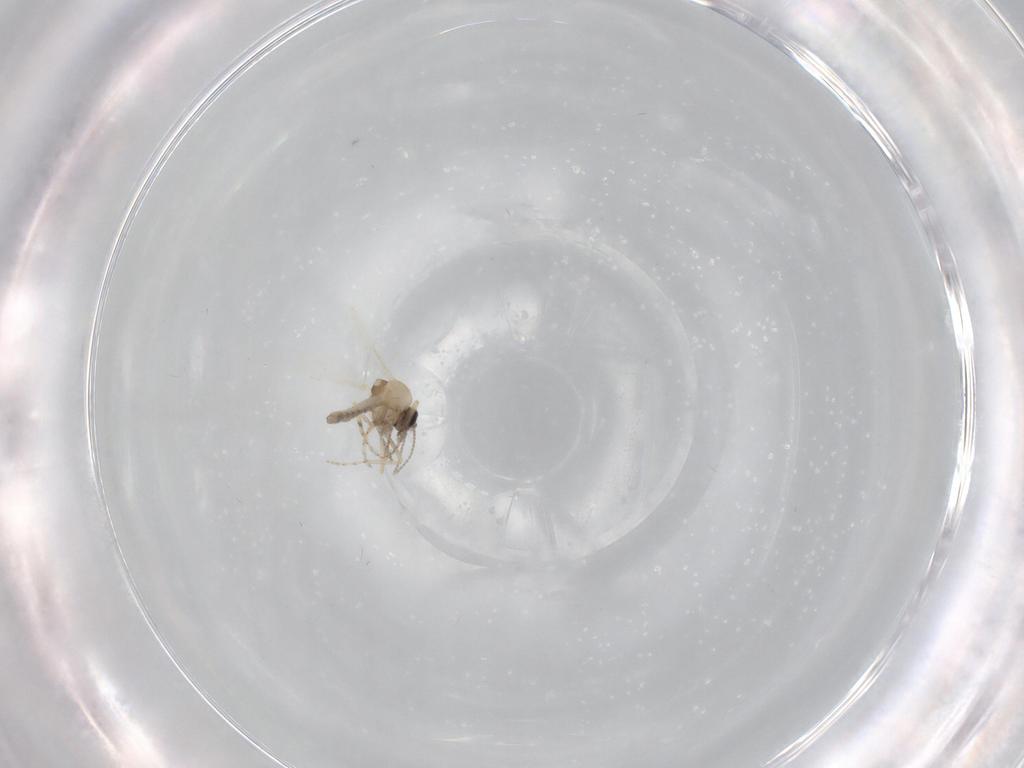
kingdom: Animalia
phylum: Arthropoda
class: Insecta
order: Diptera
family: Ceratopogonidae
